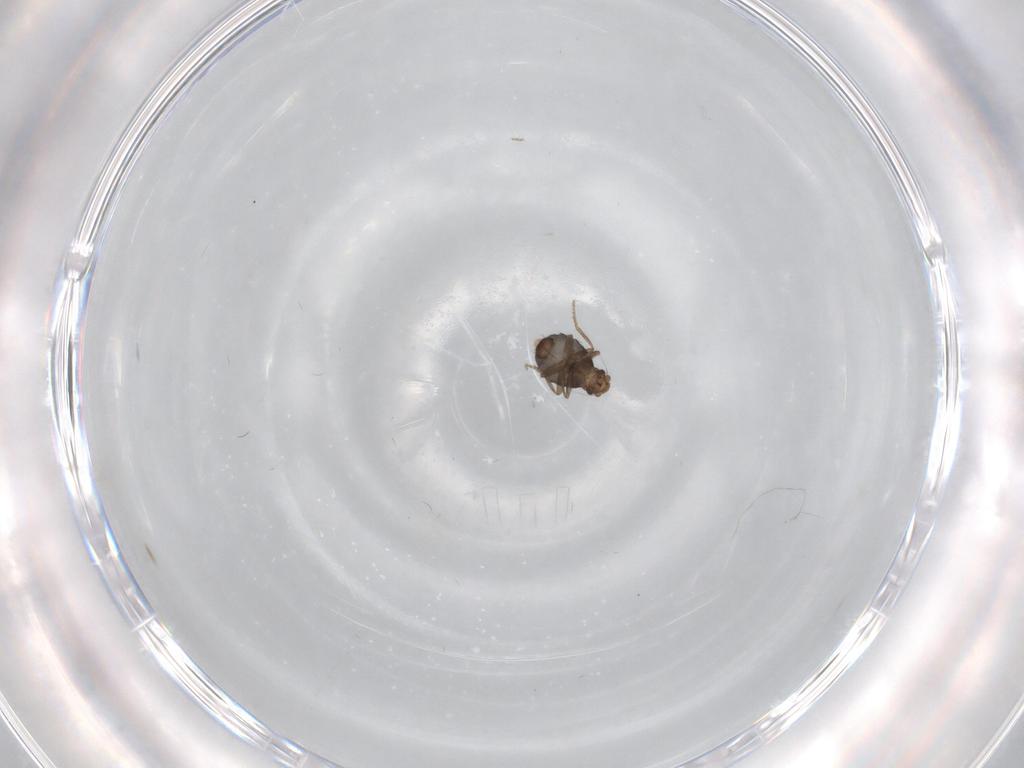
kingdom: Animalia
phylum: Arthropoda
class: Insecta
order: Diptera
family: Phoridae
